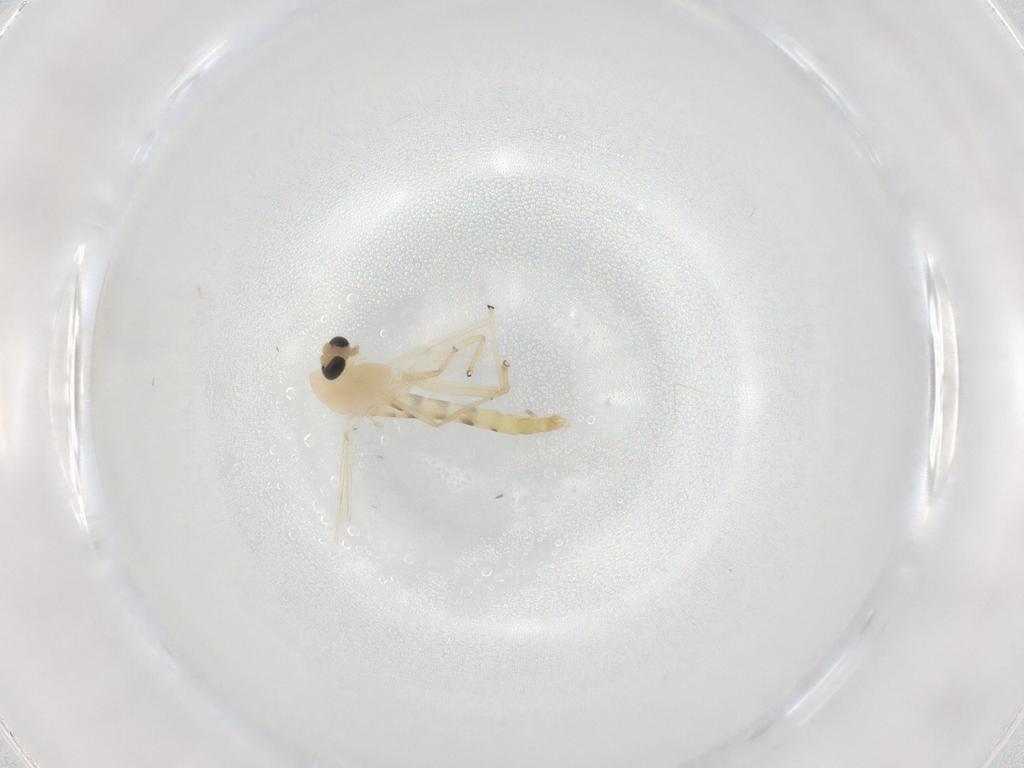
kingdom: Animalia
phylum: Arthropoda
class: Insecta
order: Diptera
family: Chironomidae
